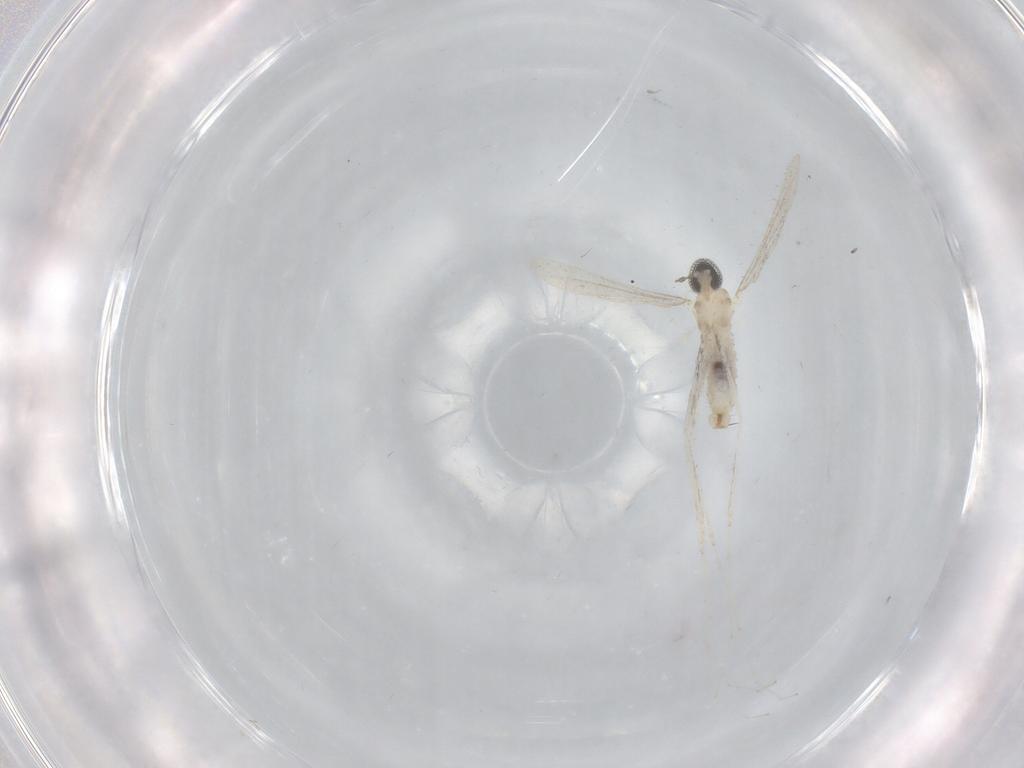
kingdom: Animalia
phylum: Arthropoda
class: Insecta
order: Diptera
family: Cecidomyiidae
